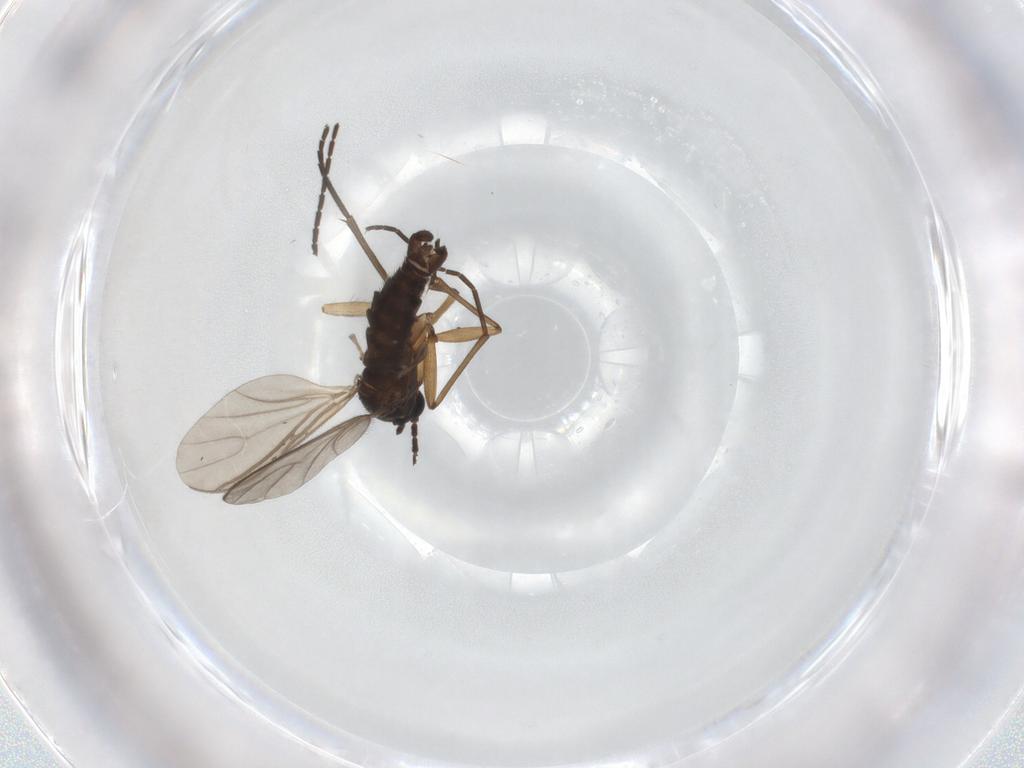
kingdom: Animalia
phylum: Arthropoda
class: Insecta
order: Diptera
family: Sciaridae
